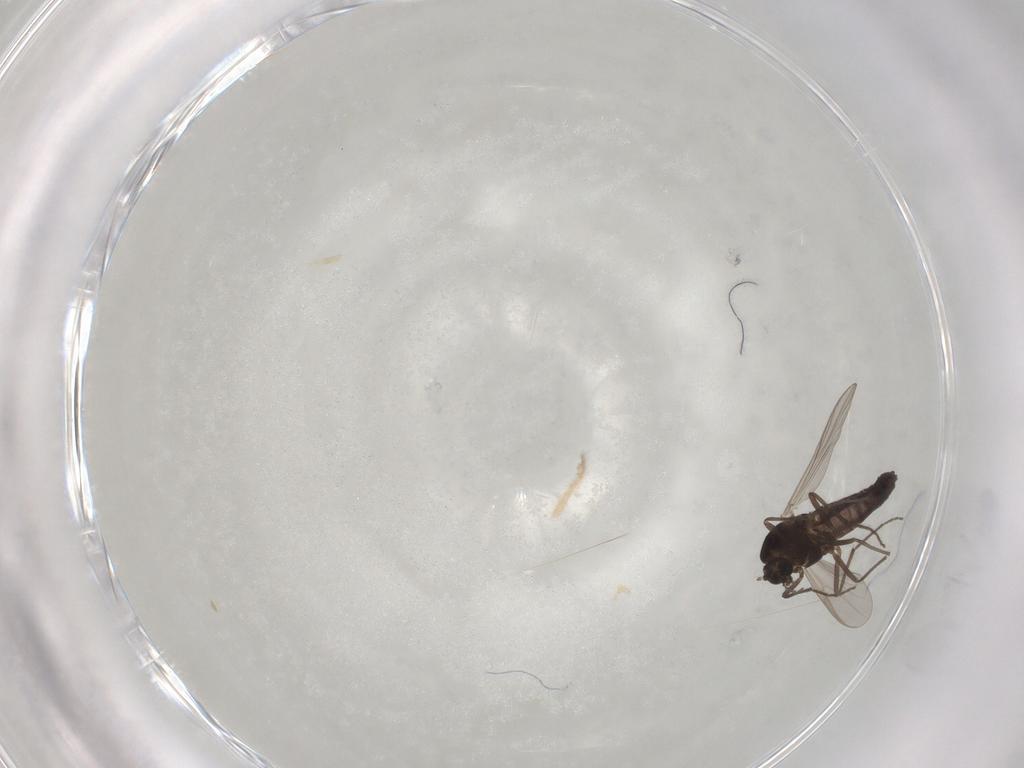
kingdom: Animalia
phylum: Arthropoda
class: Insecta
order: Diptera
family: Chironomidae
